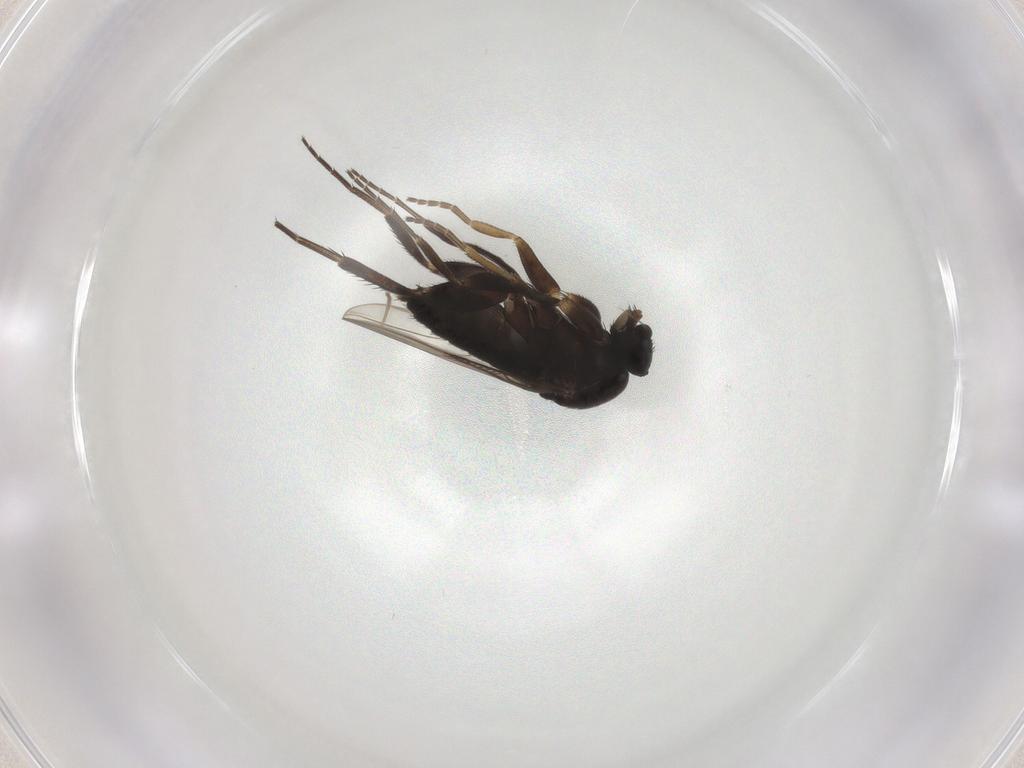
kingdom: Animalia
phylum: Arthropoda
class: Insecta
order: Diptera
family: Phoridae
